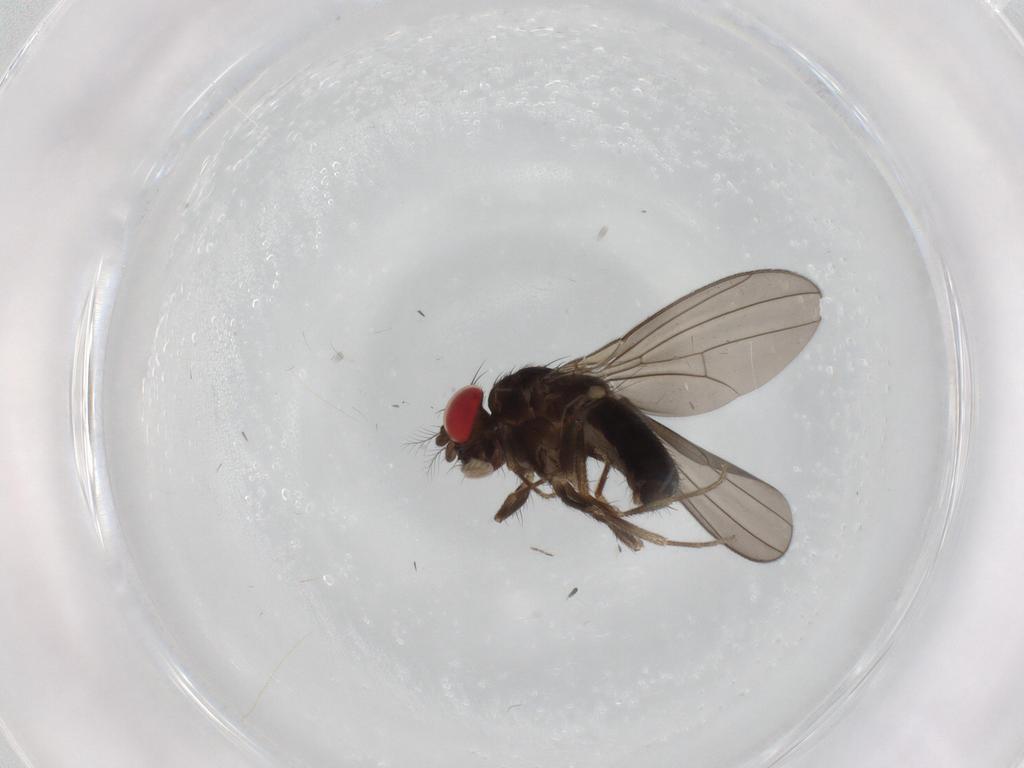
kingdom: Animalia
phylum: Arthropoda
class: Insecta
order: Diptera
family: Drosophilidae
